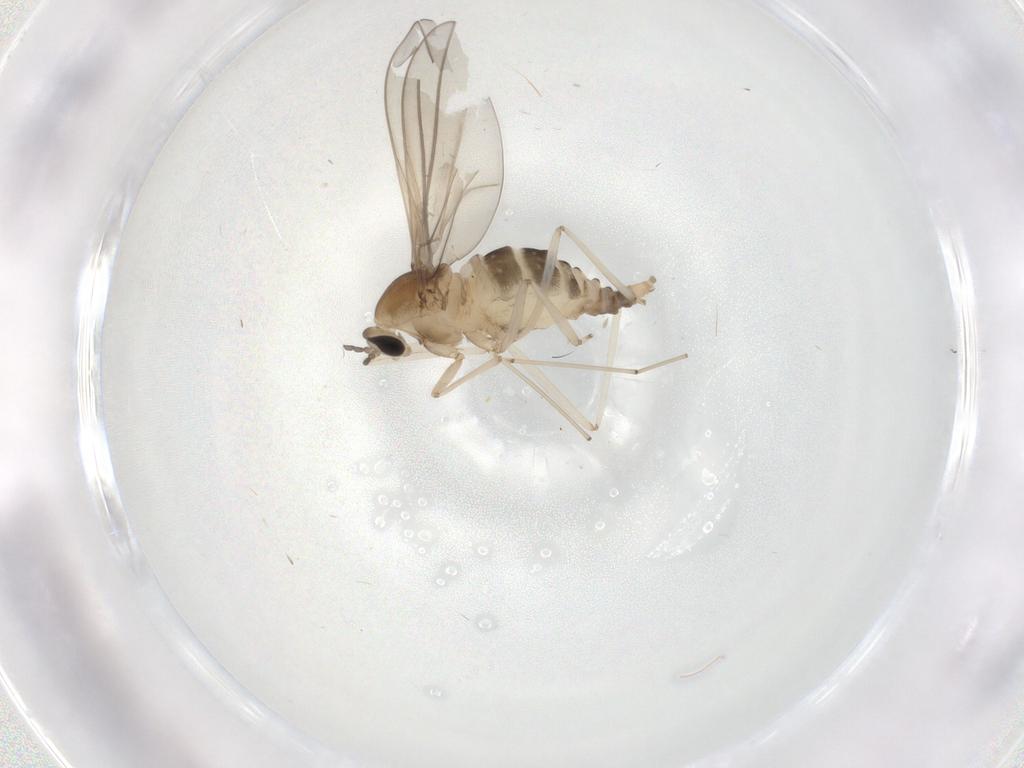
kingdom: Animalia
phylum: Arthropoda
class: Insecta
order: Diptera
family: Cecidomyiidae
